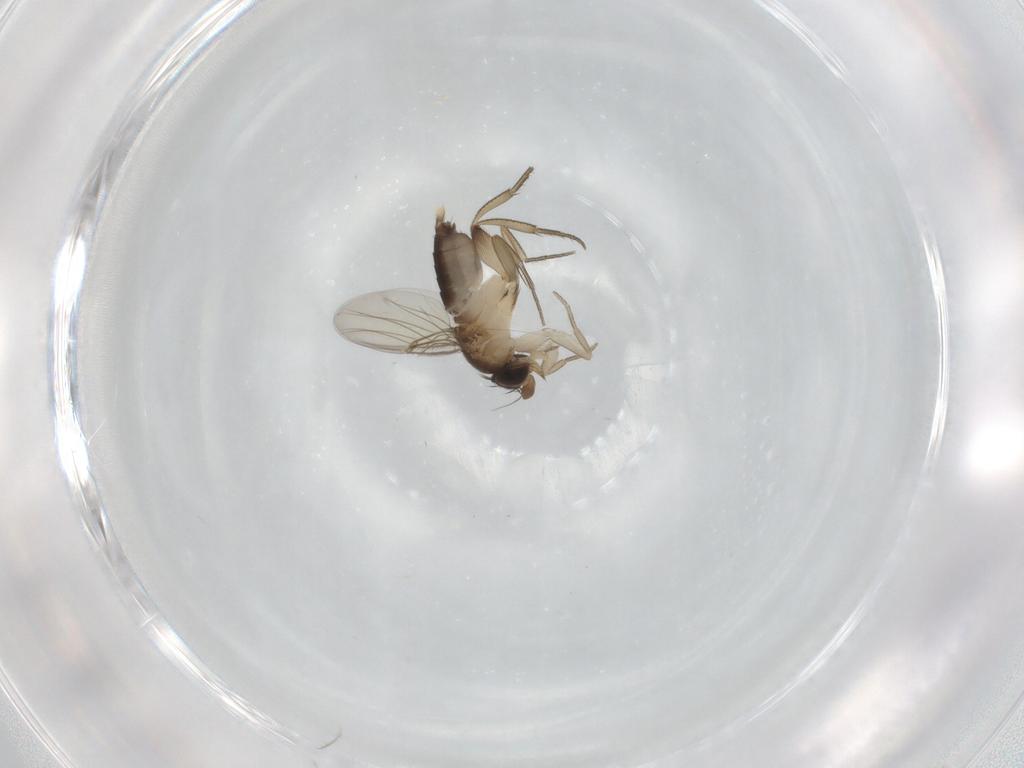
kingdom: Animalia
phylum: Arthropoda
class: Insecta
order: Diptera
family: Phoridae
